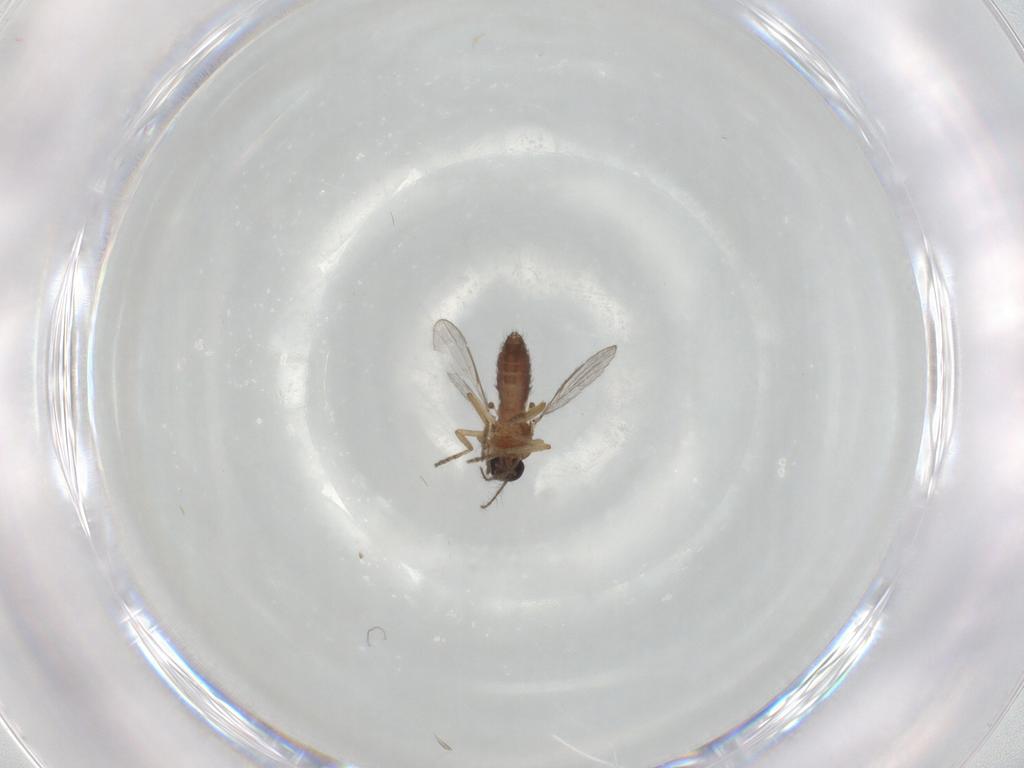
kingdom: Animalia
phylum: Arthropoda
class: Insecta
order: Diptera
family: Ceratopogonidae
